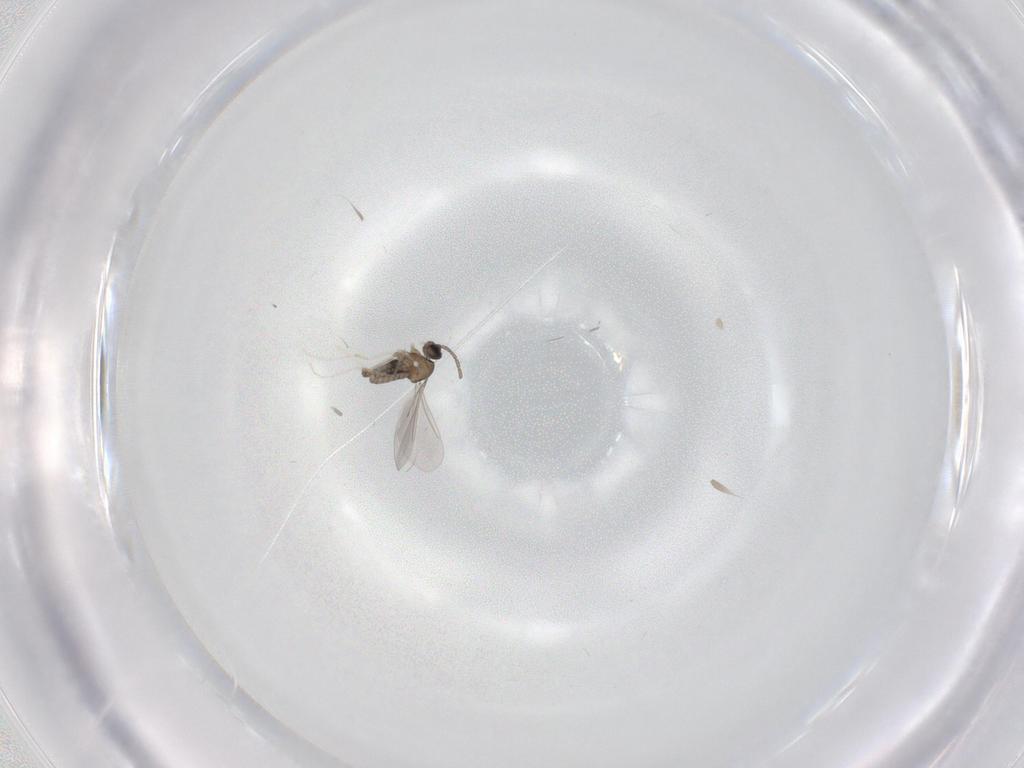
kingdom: Animalia
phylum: Arthropoda
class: Insecta
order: Diptera
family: Cecidomyiidae
